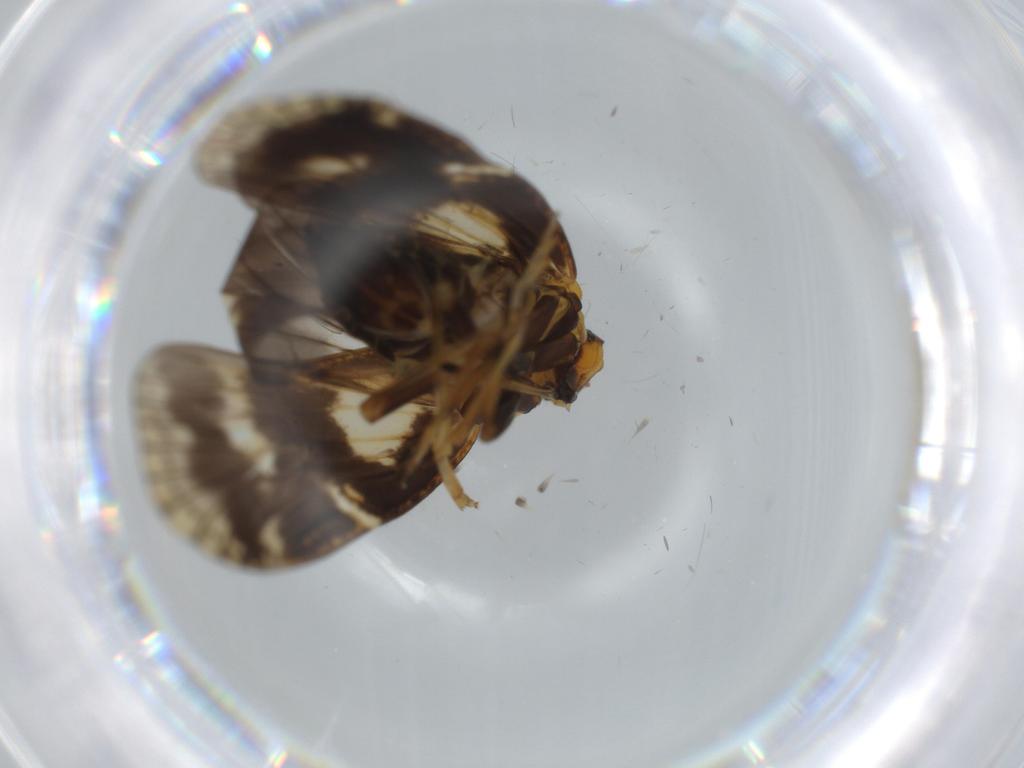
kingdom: Animalia
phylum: Arthropoda
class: Insecta
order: Hemiptera
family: Cixiidae
